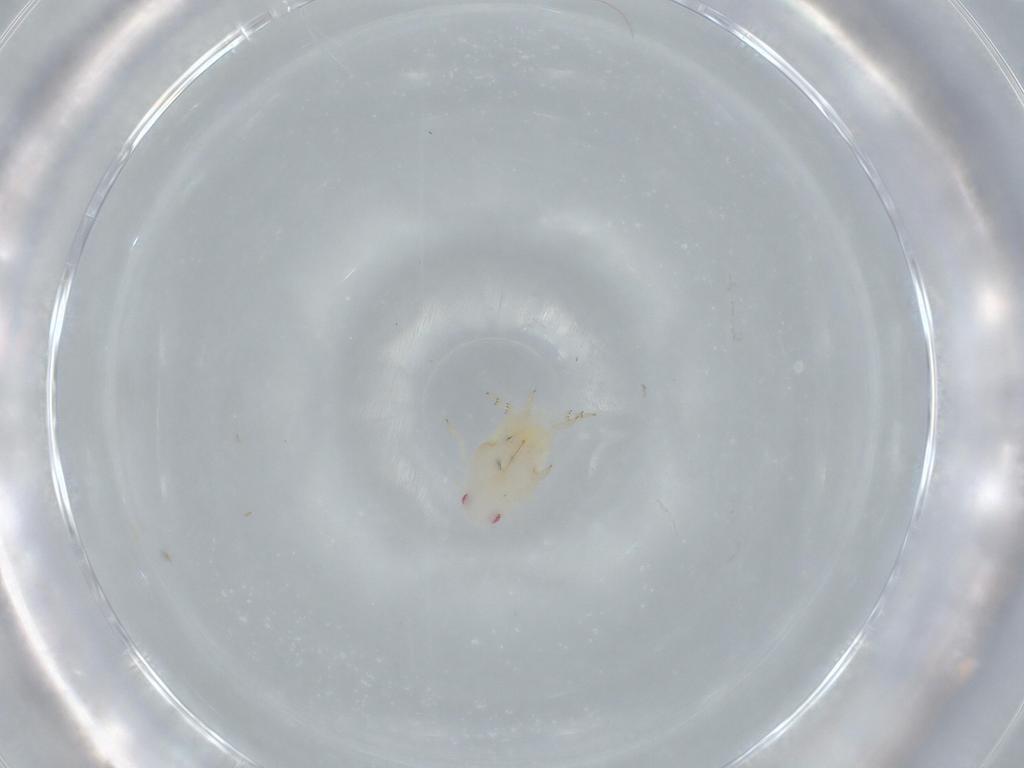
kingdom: Animalia
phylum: Arthropoda
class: Insecta
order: Hemiptera
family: Flatidae
